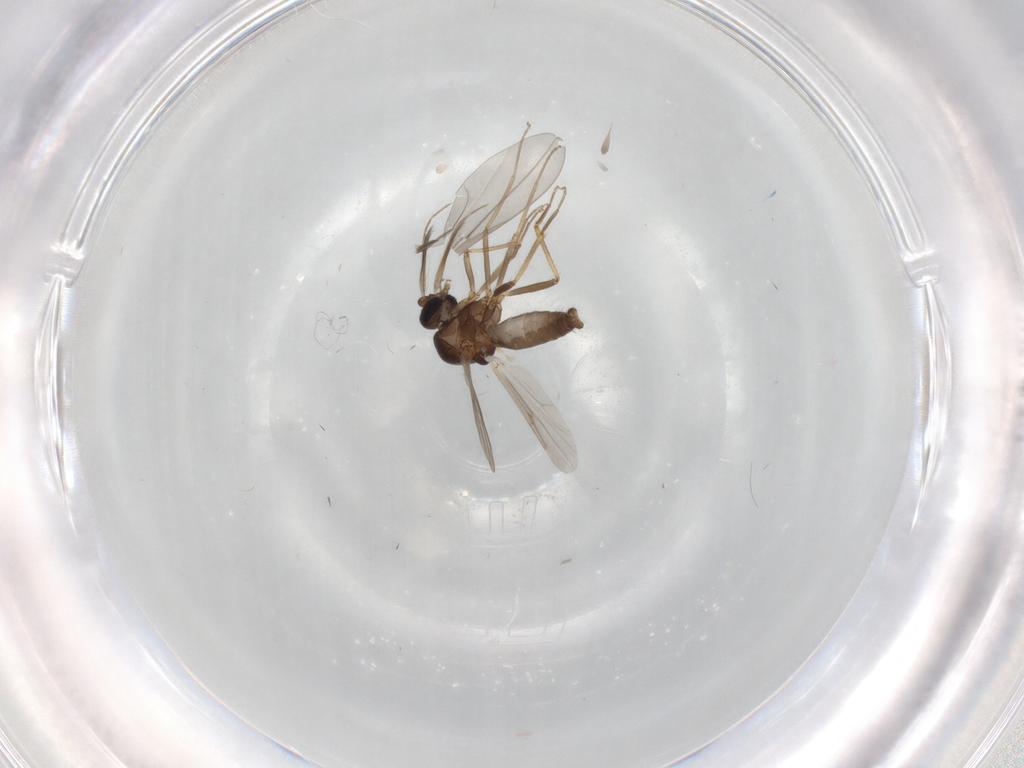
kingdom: Animalia
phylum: Arthropoda
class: Insecta
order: Diptera
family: Ceratopogonidae
